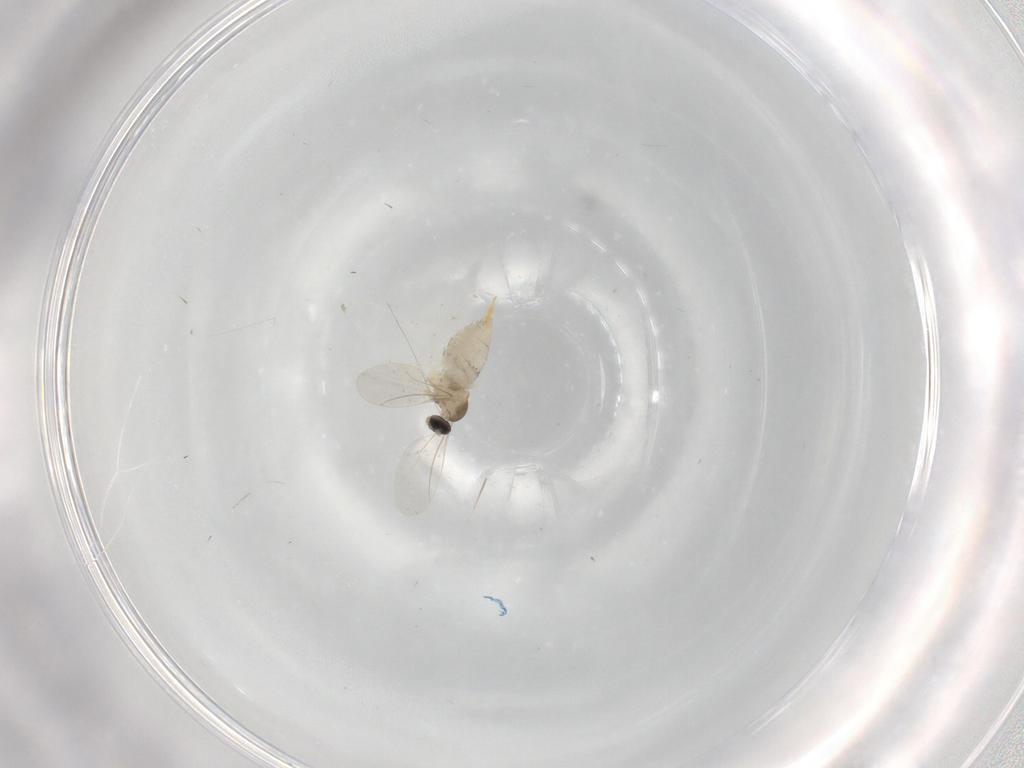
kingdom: Animalia
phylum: Arthropoda
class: Insecta
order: Diptera
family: Cecidomyiidae
